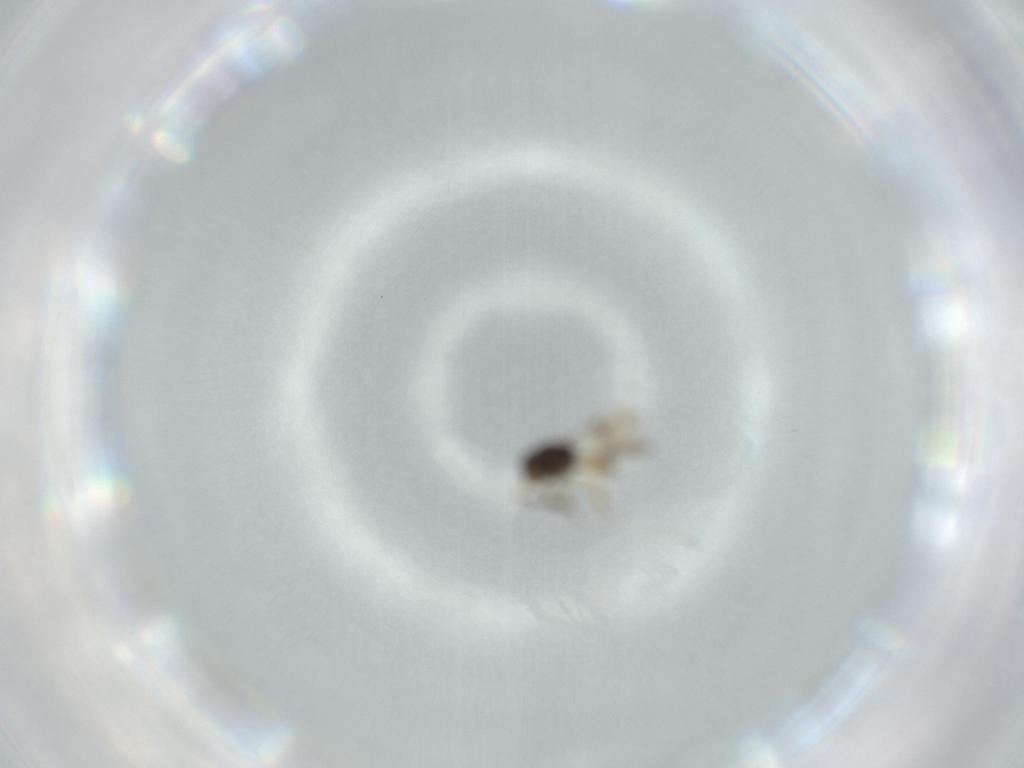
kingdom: Animalia
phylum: Arthropoda
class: Insecta
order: Hymenoptera
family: Scelionidae
